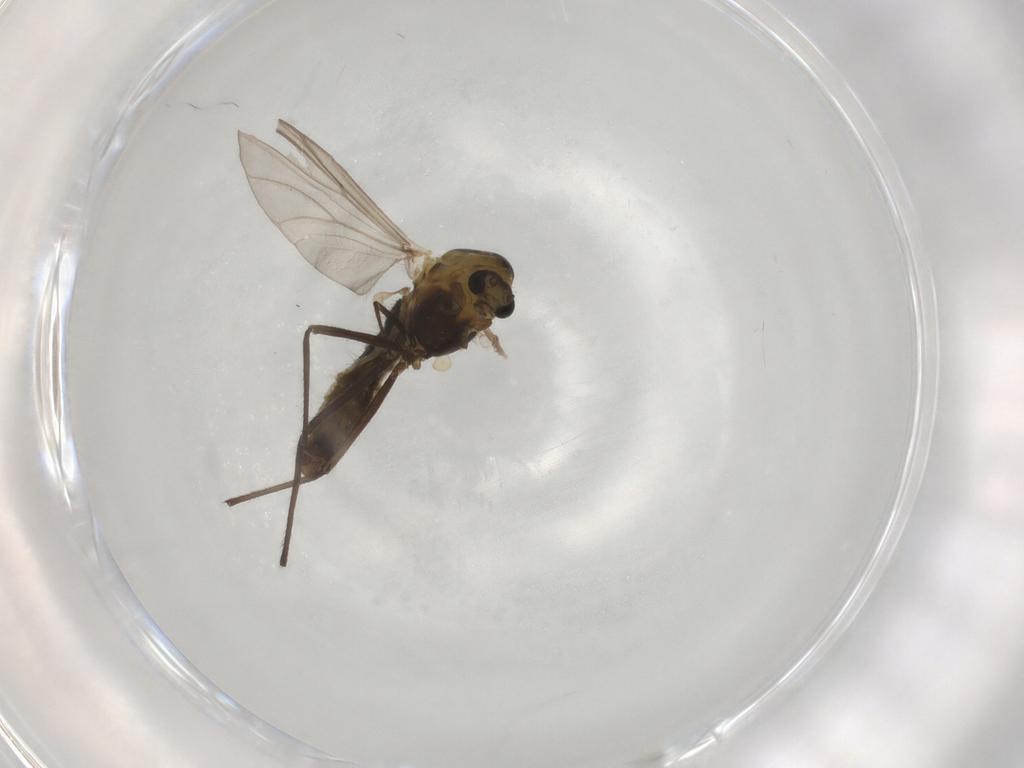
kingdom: Animalia
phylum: Arthropoda
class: Insecta
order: Diptera
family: Chironomidae
